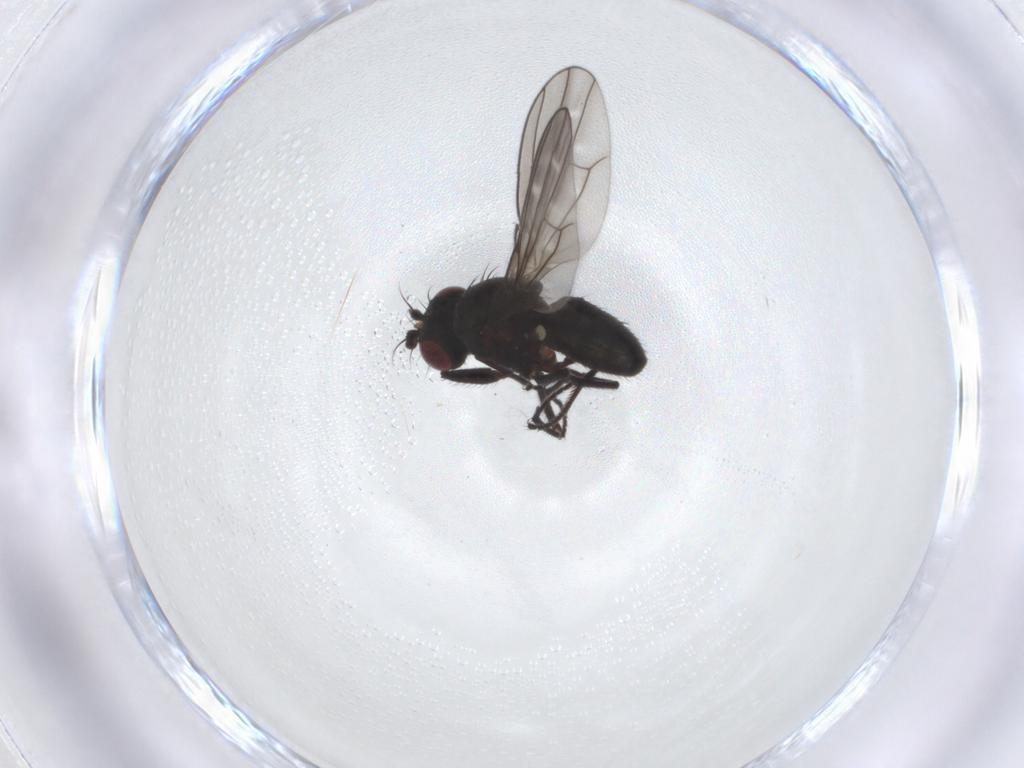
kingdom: Animalia
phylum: Arthropoda
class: Insecta
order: Diptera
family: Ephydridae
